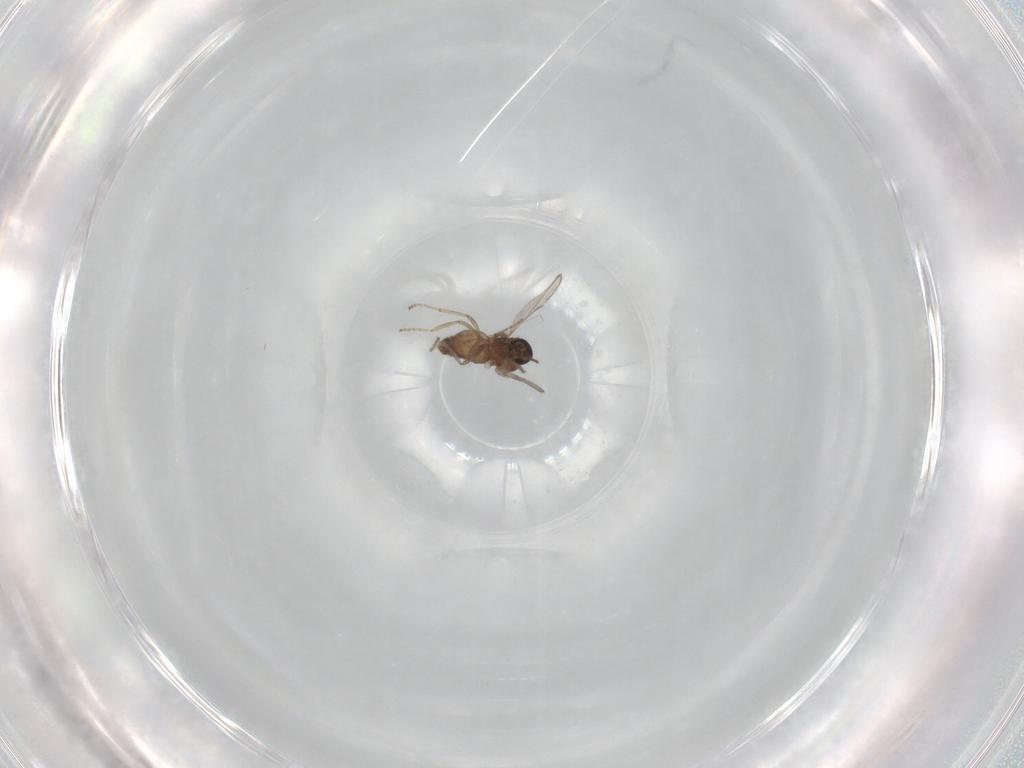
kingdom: Animalia
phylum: Arthropoda
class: Insecta
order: Diptera
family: Ceratopogonidae
